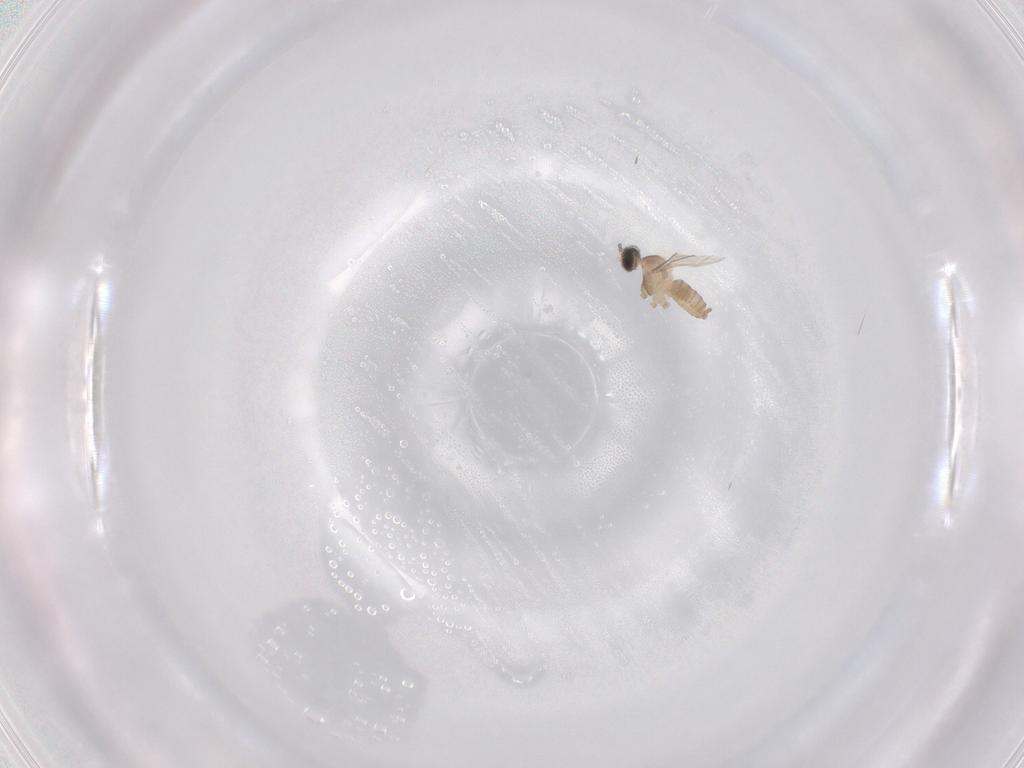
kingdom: Animalia
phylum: Arthropoda
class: Insecta
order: Diptera
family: Cecidomyiidae
